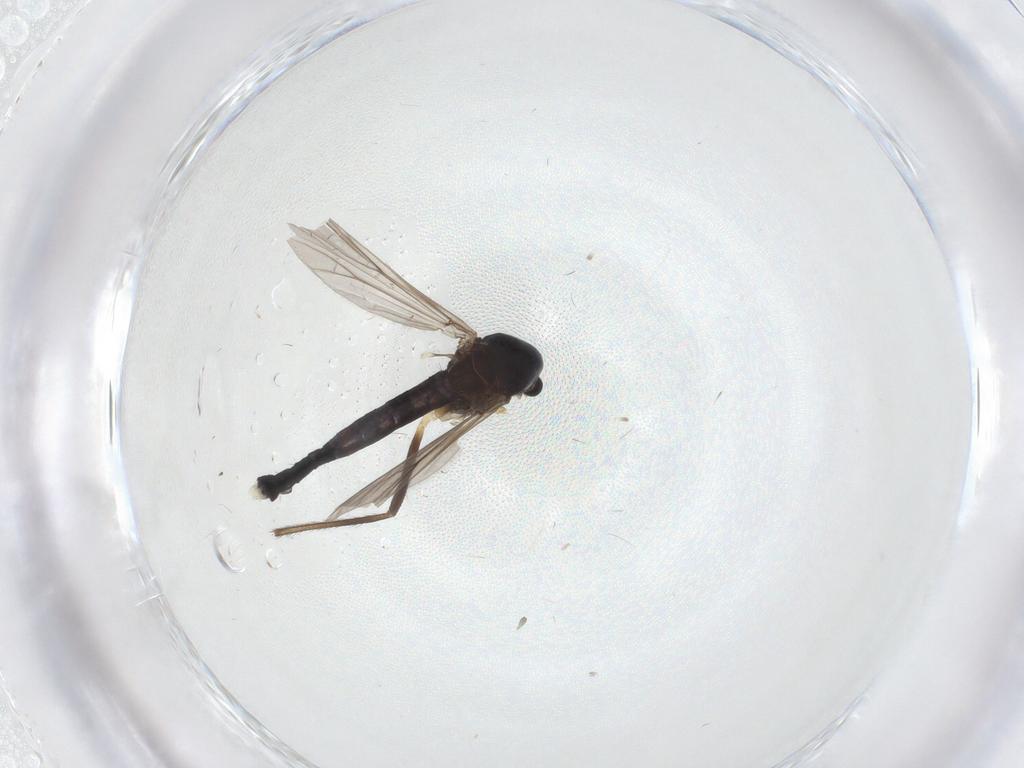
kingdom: Animalia
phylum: Arthropoda
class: Insecta
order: Diptera
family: Chironomidae
